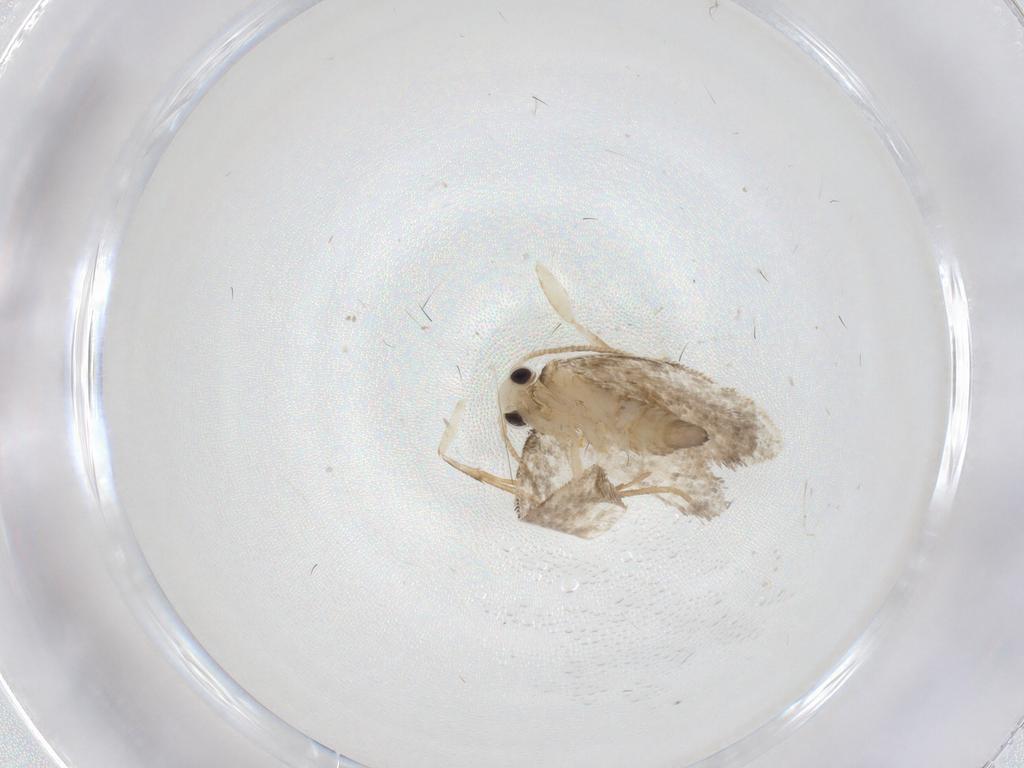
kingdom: Animalia
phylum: Arthropoda
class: Insecta
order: Lepidoptera
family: Psychidae
